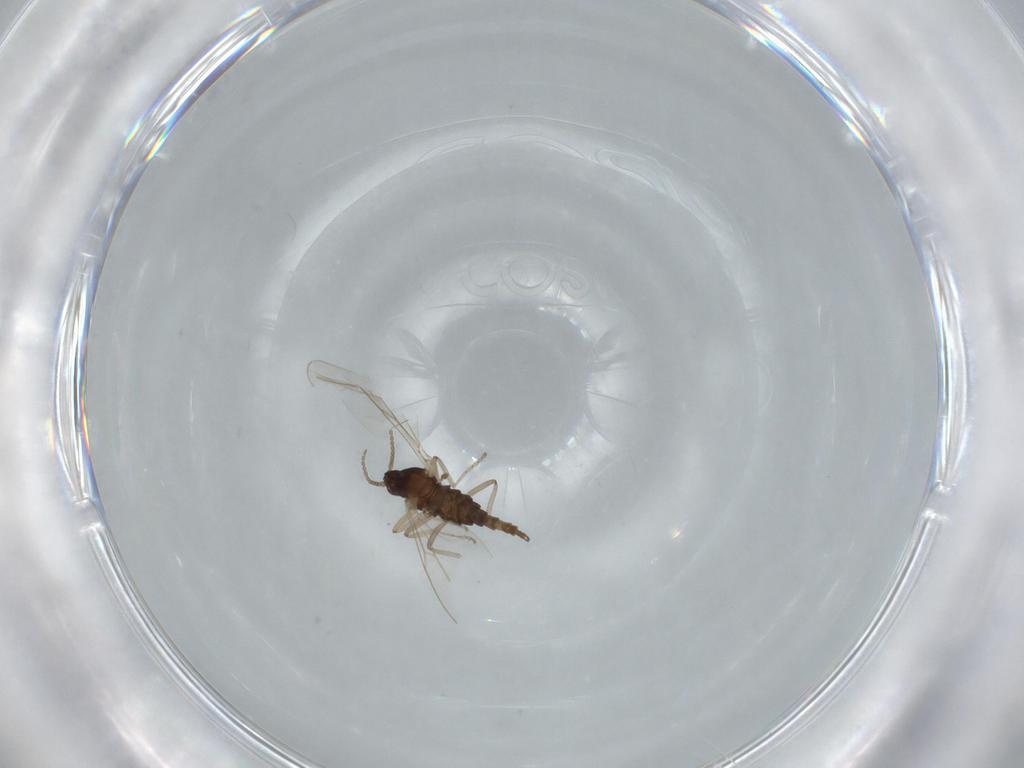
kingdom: Animalia
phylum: Arthropoda
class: Insecta
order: Diptera
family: Cecidomyiidae
